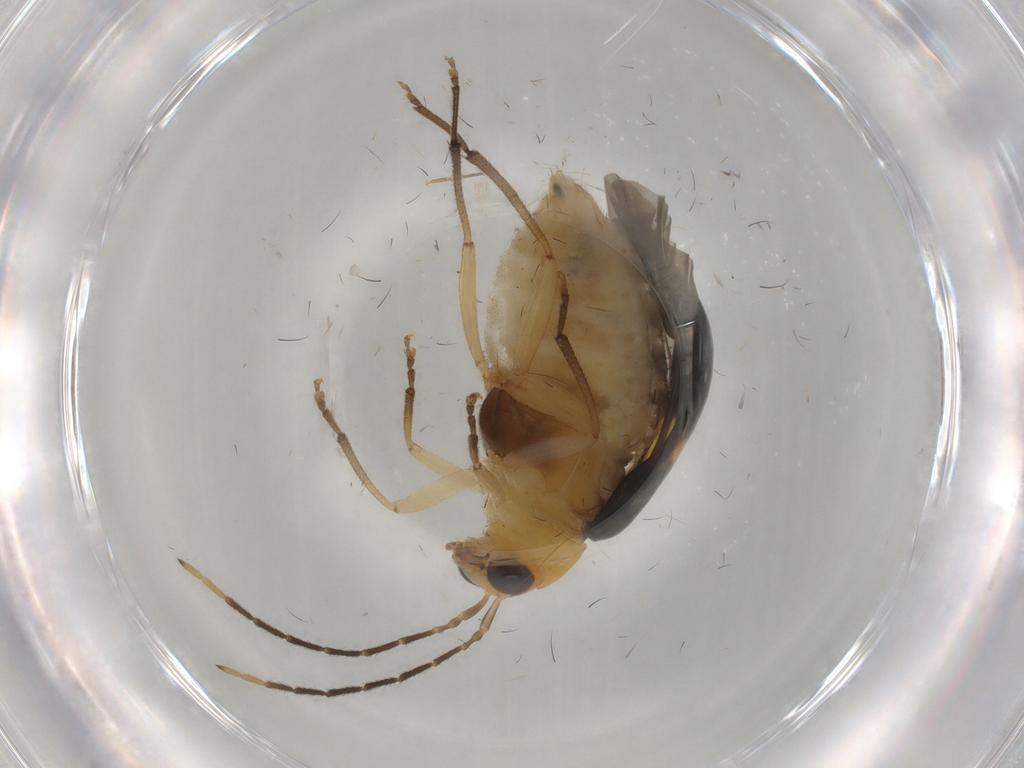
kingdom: Animalia
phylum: Arthropoda
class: Insecta
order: Coleoptera
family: Chrysomelidae
